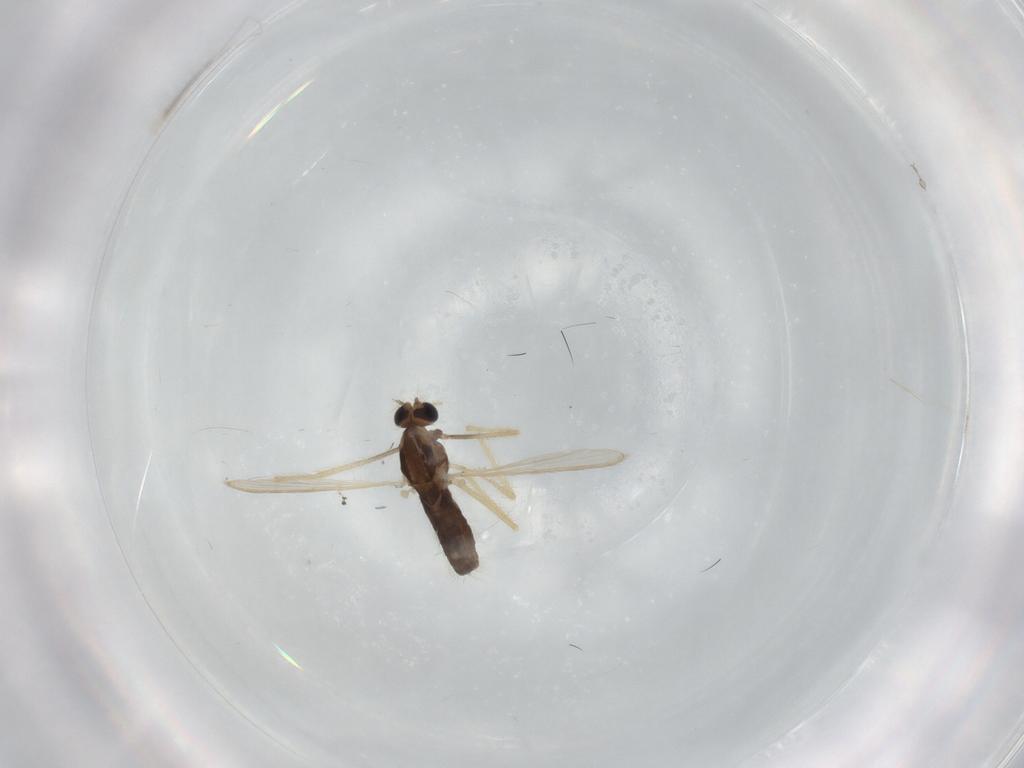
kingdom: Animalia
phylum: Arthropoda
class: Insecta
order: Diptera
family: Chironomidae
